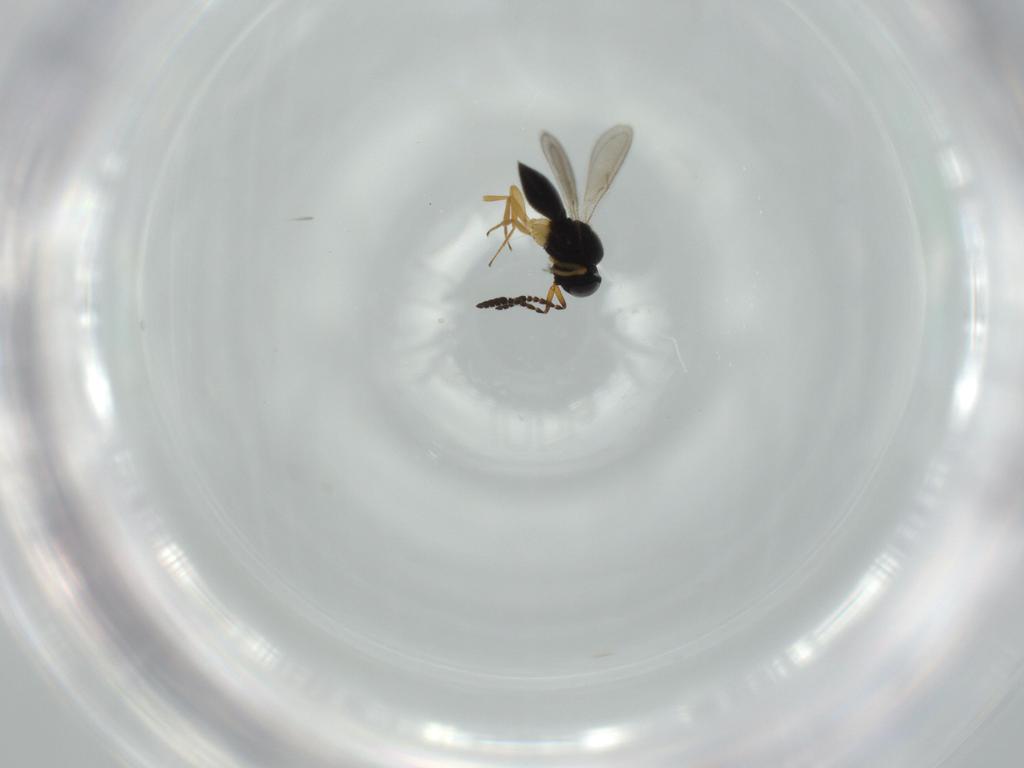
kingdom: Animalia
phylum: Arthropoda
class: Insecta
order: Hymenoptera
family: Scelionidae
